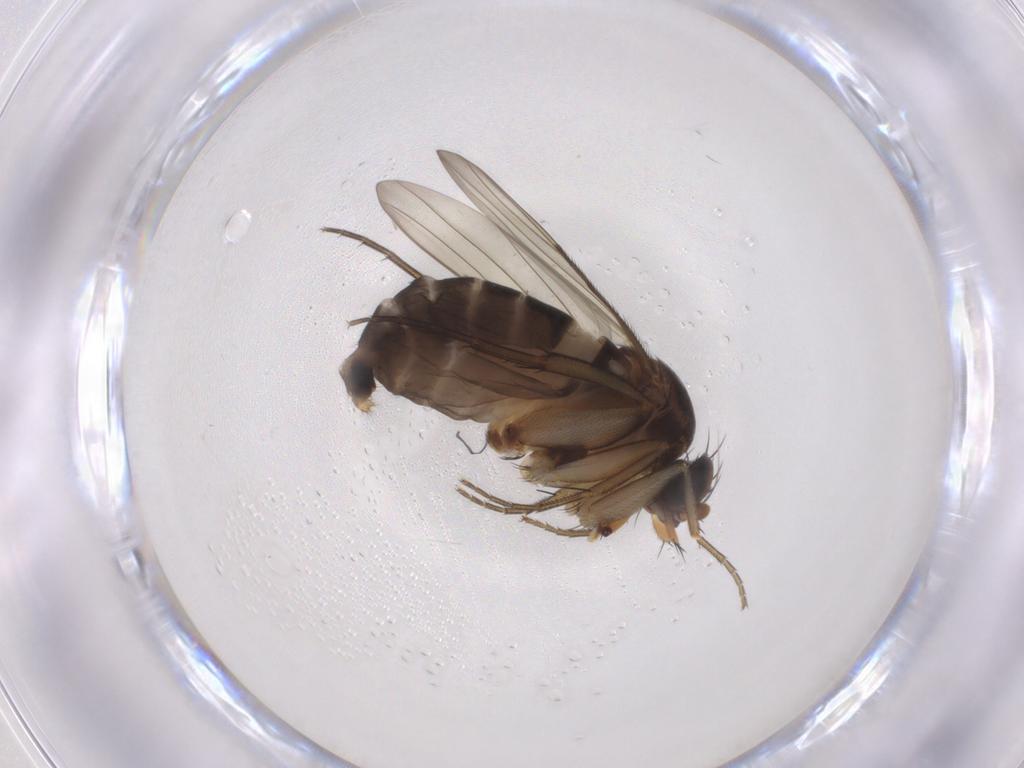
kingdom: Animalia
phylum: Arthropoda
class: Insecta
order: Diptera
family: Phoridae
